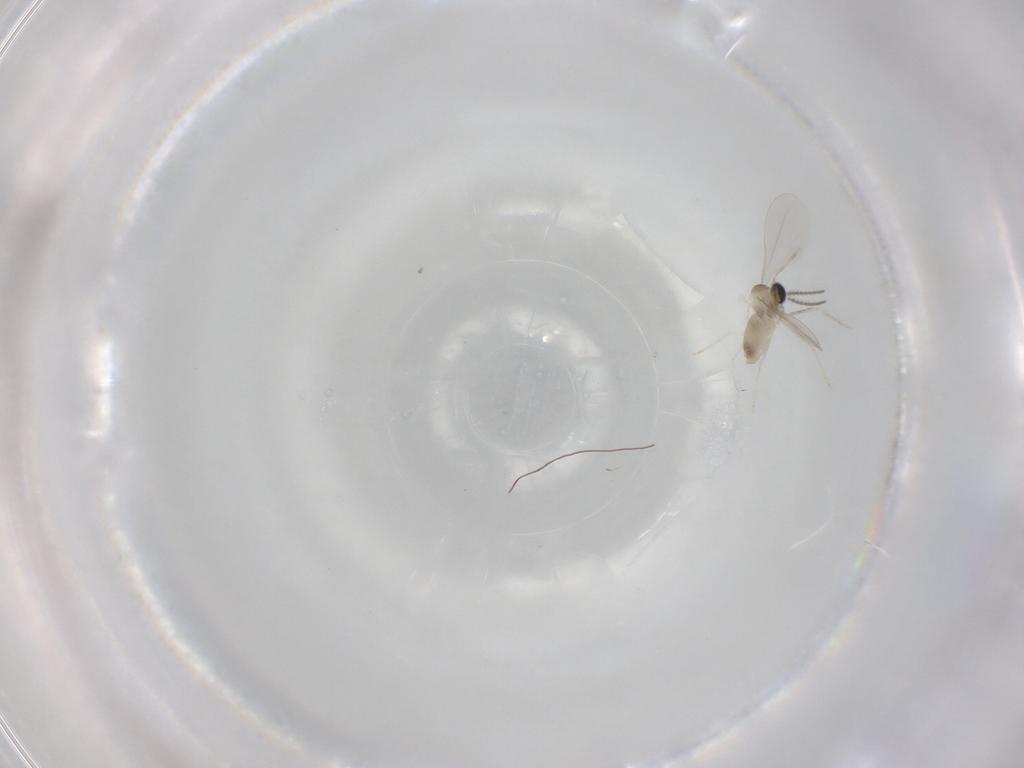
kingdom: Animalia
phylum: Arthropoda
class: Insecta
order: Diptera
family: Cecidomyiidae
